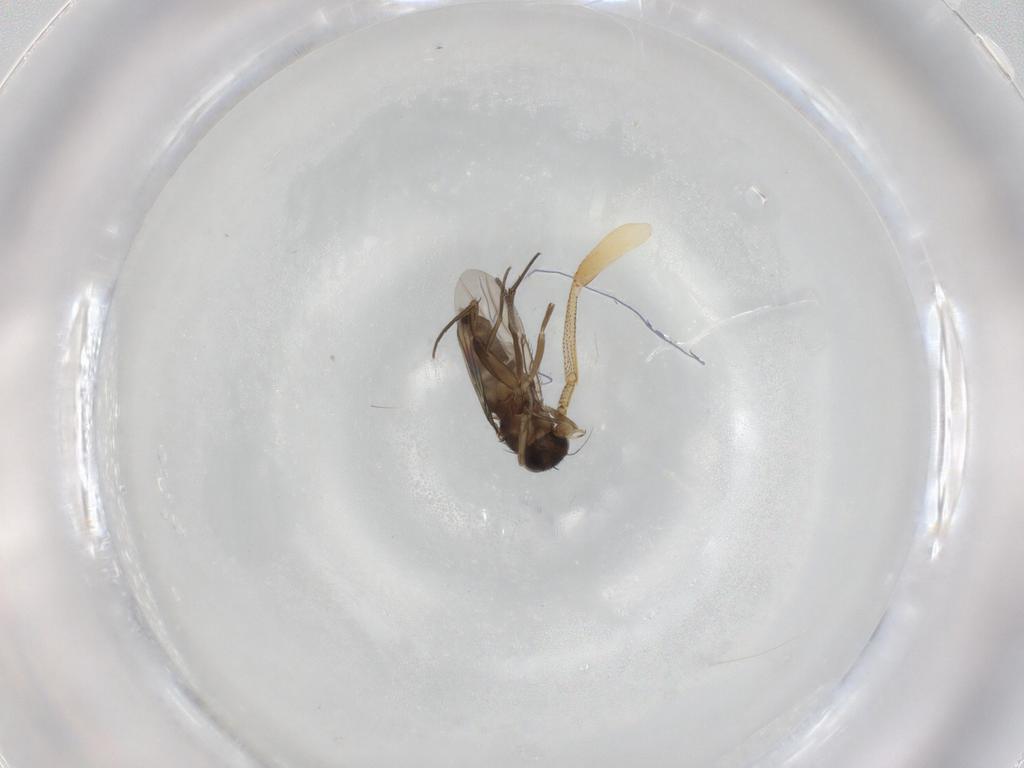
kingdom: Animalia
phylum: Arthropoda
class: Insecta
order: Diptera
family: Pipunculidae
